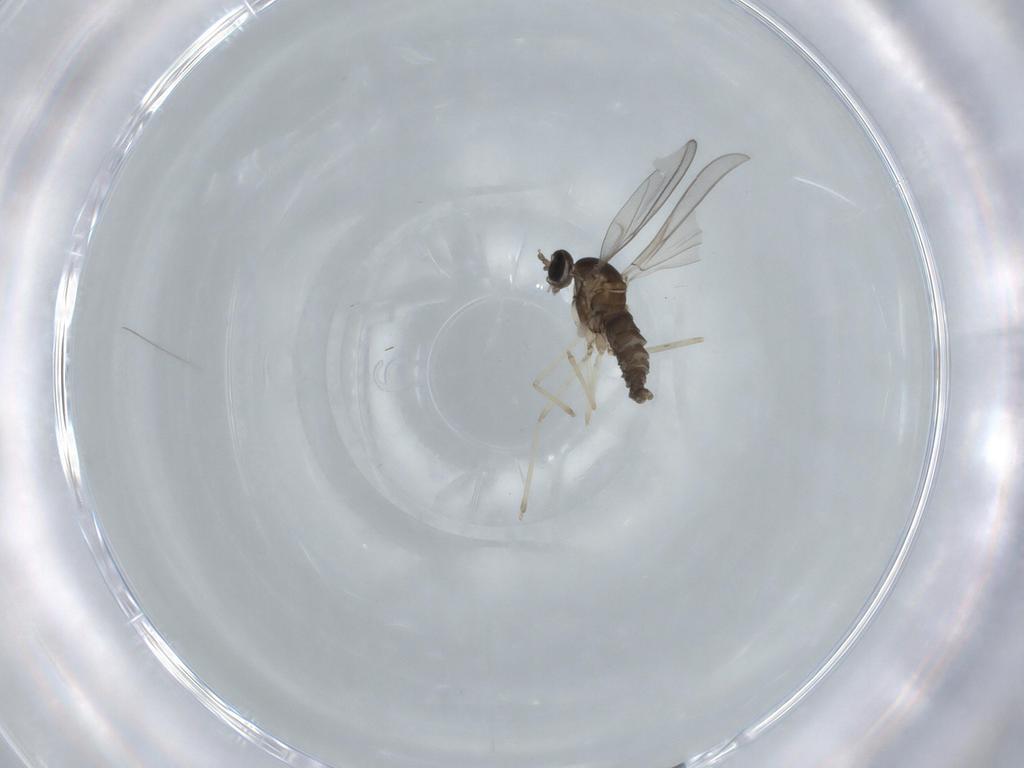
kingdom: Animalia
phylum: Arthropoda
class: Insecta
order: Diptera
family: Cecidomyiidae
